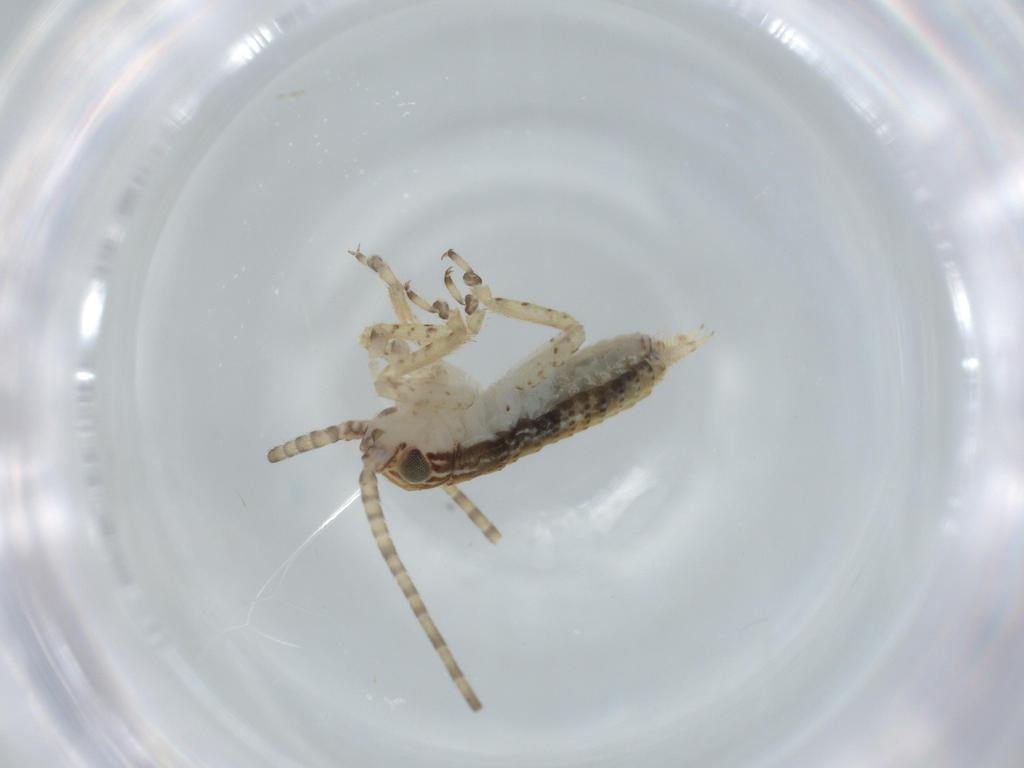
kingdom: Animalia
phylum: Arthropoda
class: Insecta
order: Orthoptera
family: Gryllidae
